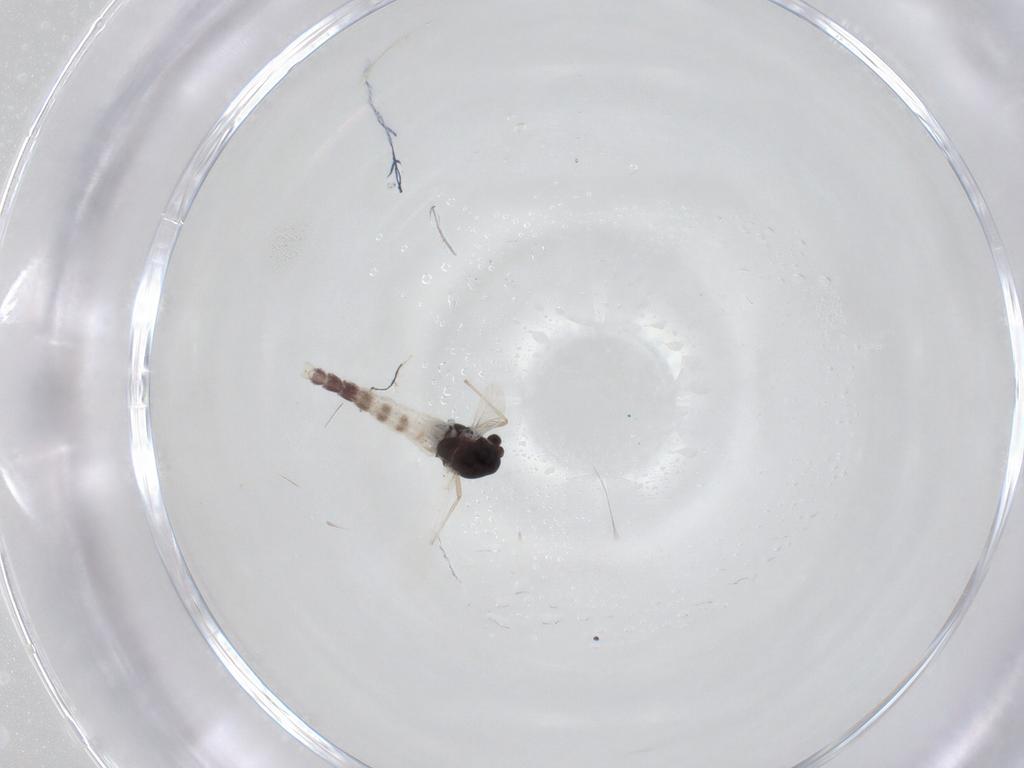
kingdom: Animalia
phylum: Arthropoda
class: Insecta
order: Diptera
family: Chironomidae
